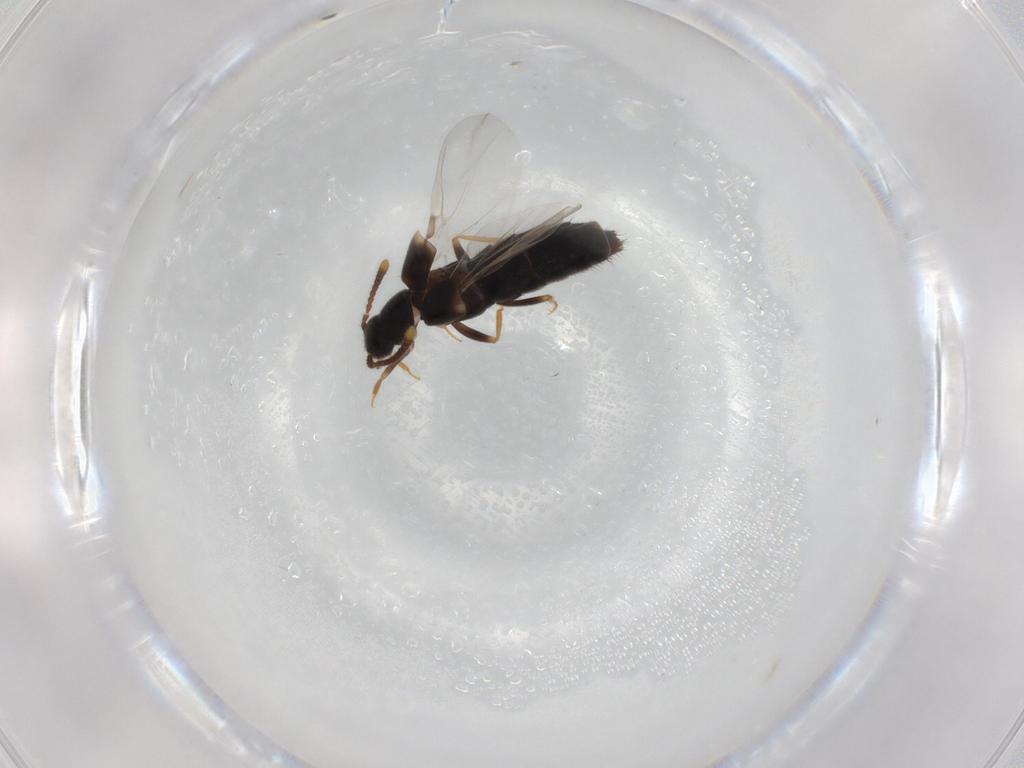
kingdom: Animalia
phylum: Arthropoda
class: Insecta
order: Coleoptera
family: Staphylinidae
